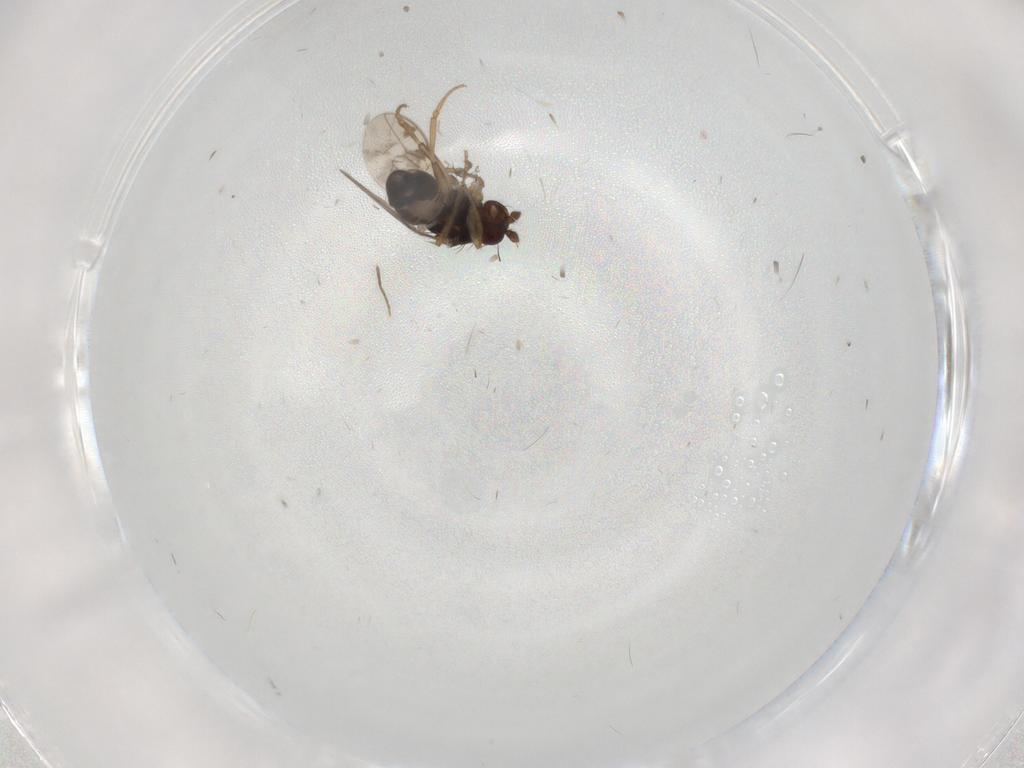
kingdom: Animalia
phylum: Arthropoda
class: Insecta
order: Diptera
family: Sphaeroceridae
